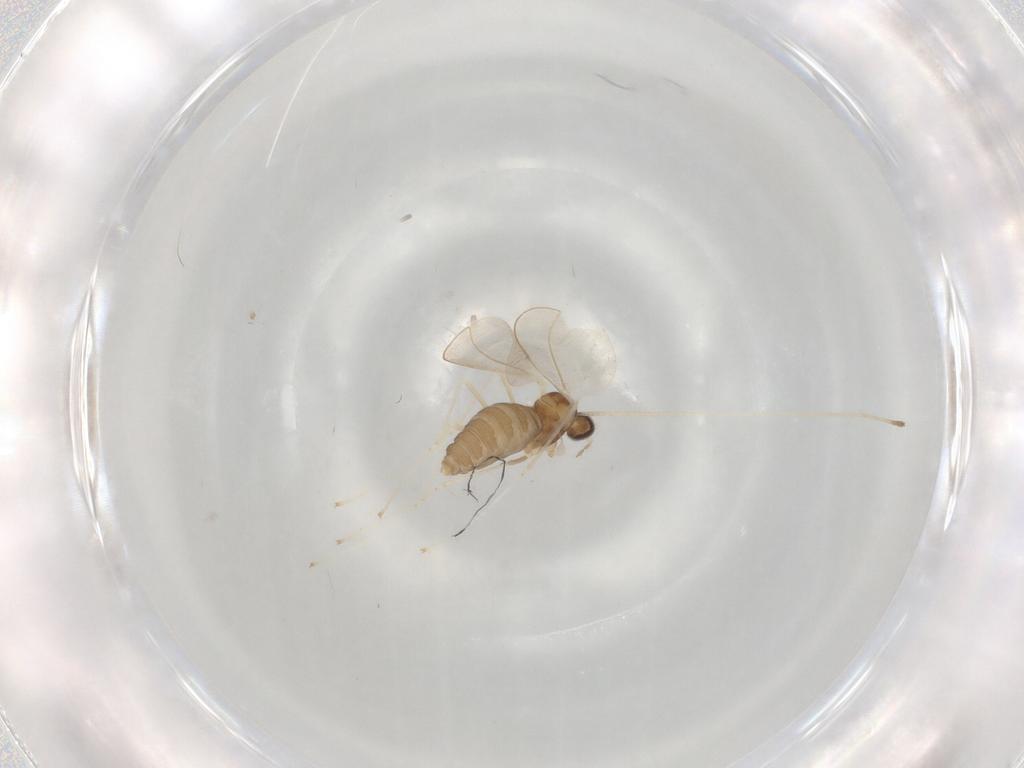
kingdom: Animalia
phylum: Arthropoda
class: Insecta
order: Diptera
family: Cecidomyiidae
